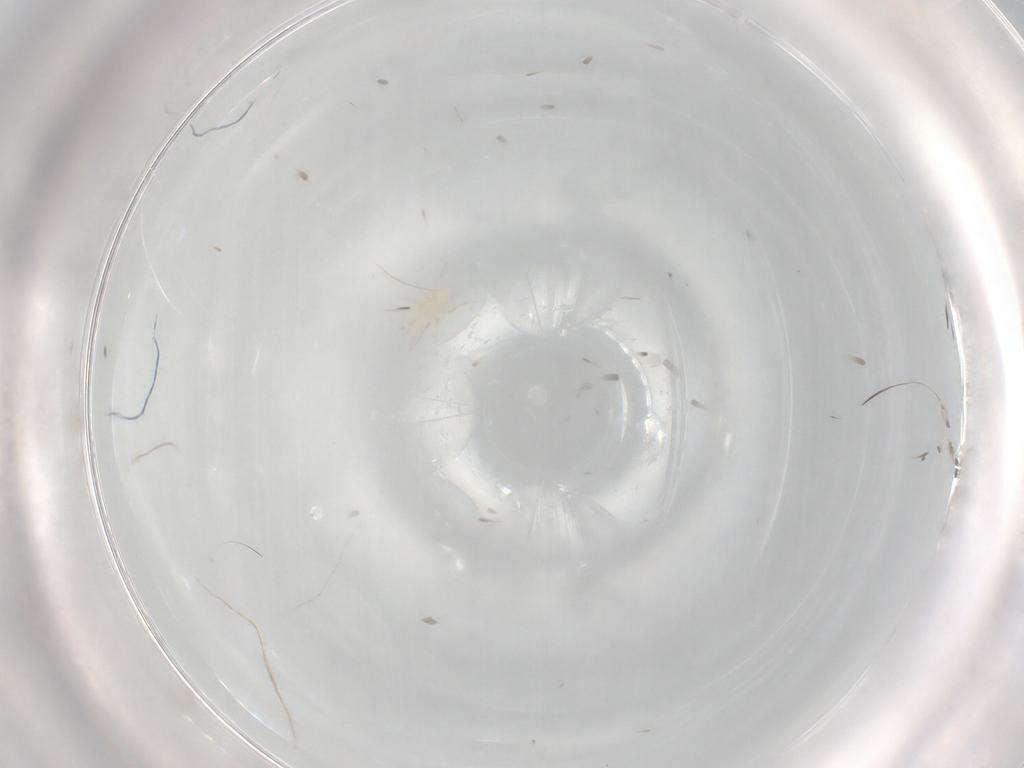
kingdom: Animalia
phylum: Arthropoda
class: Insecta
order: Blattodea
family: Blaberidae
